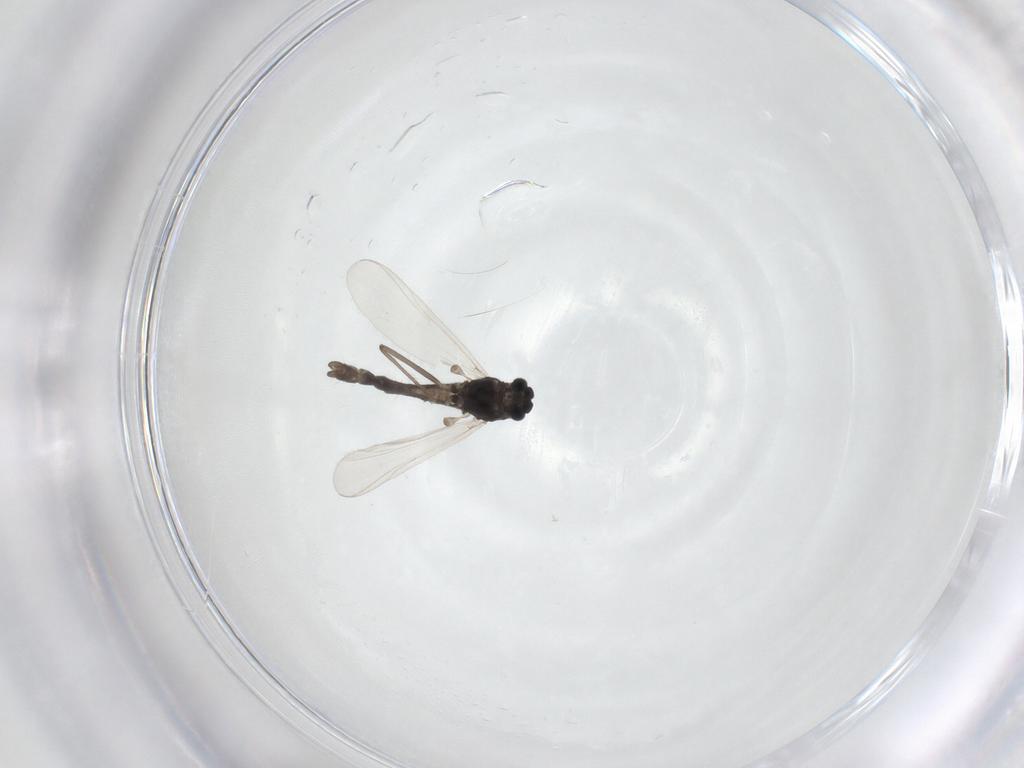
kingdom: Animalia
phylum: Arthropoda
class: Insecta
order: Diptera
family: Chironomidae
